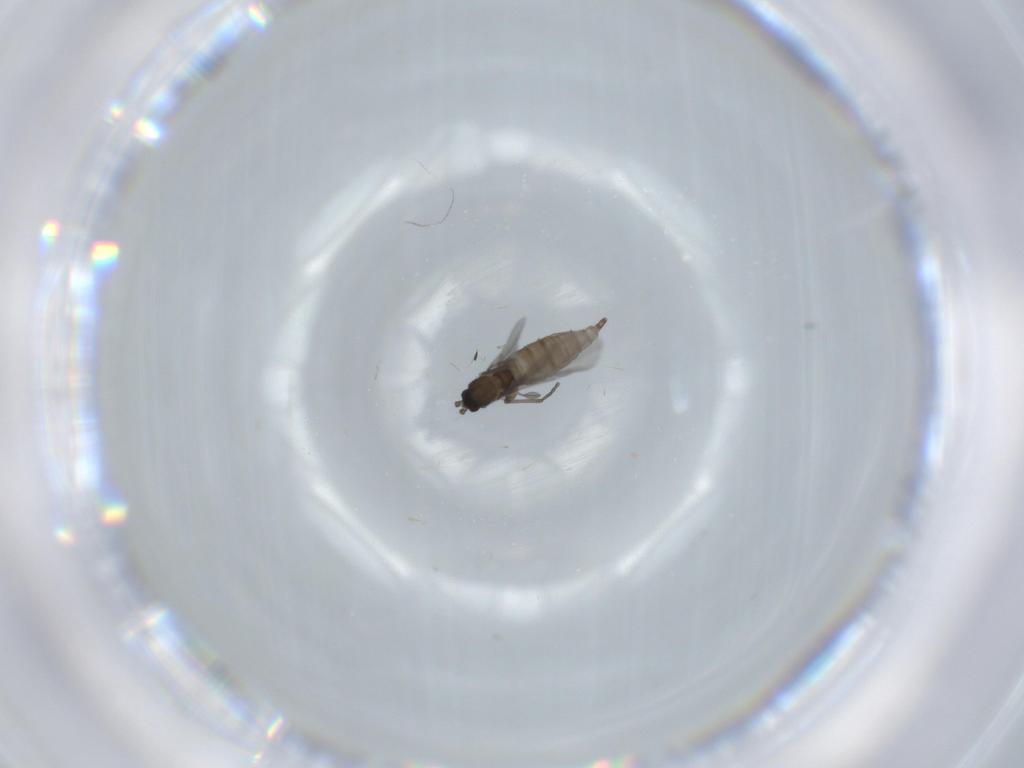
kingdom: Animalia
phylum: Arthropoda
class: Insecta
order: Diptera
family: Sciaridae
